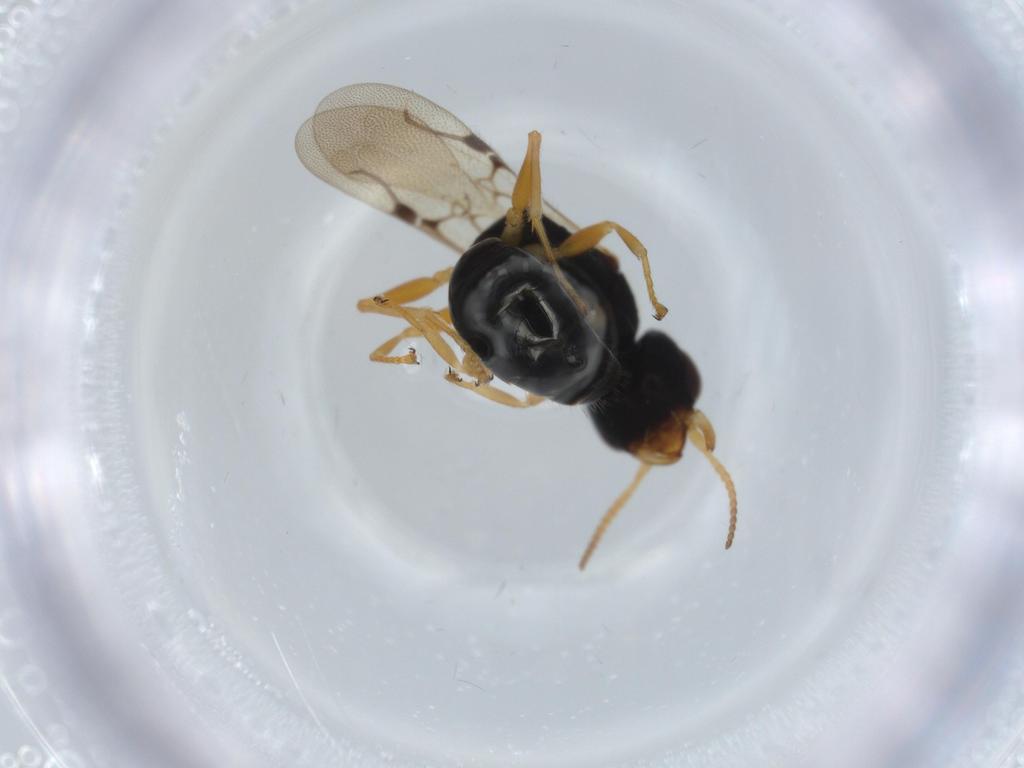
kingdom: Animalia
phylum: Arthropoda
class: Insecta
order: Hymenoptera
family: Bethylidae
